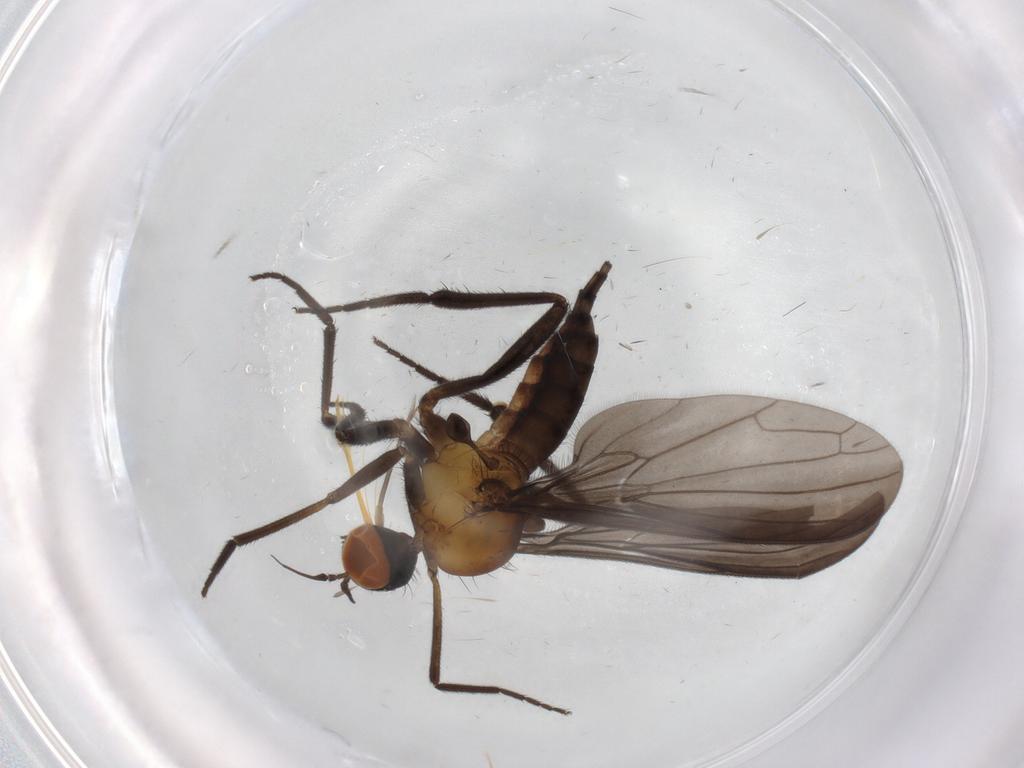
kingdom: Animalia
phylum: Arthropoda
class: Insecta
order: Diptera
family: Empididae
